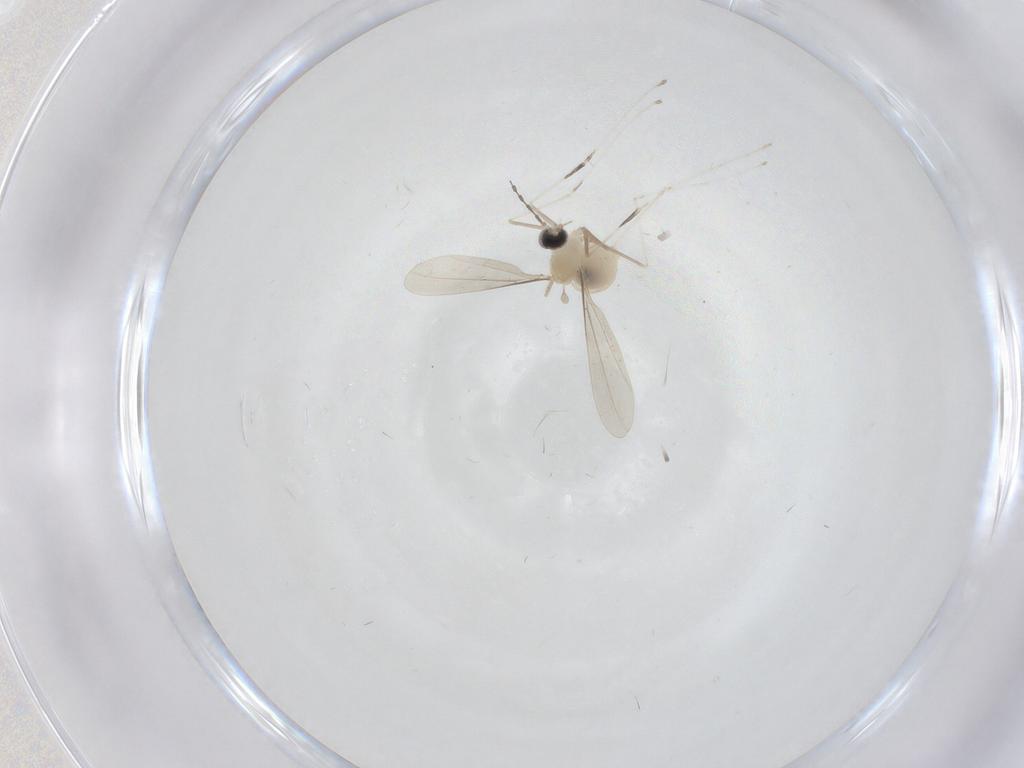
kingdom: Animalia
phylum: Arthropoda
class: Insecta
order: Diptera
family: Cecidomyiidae
